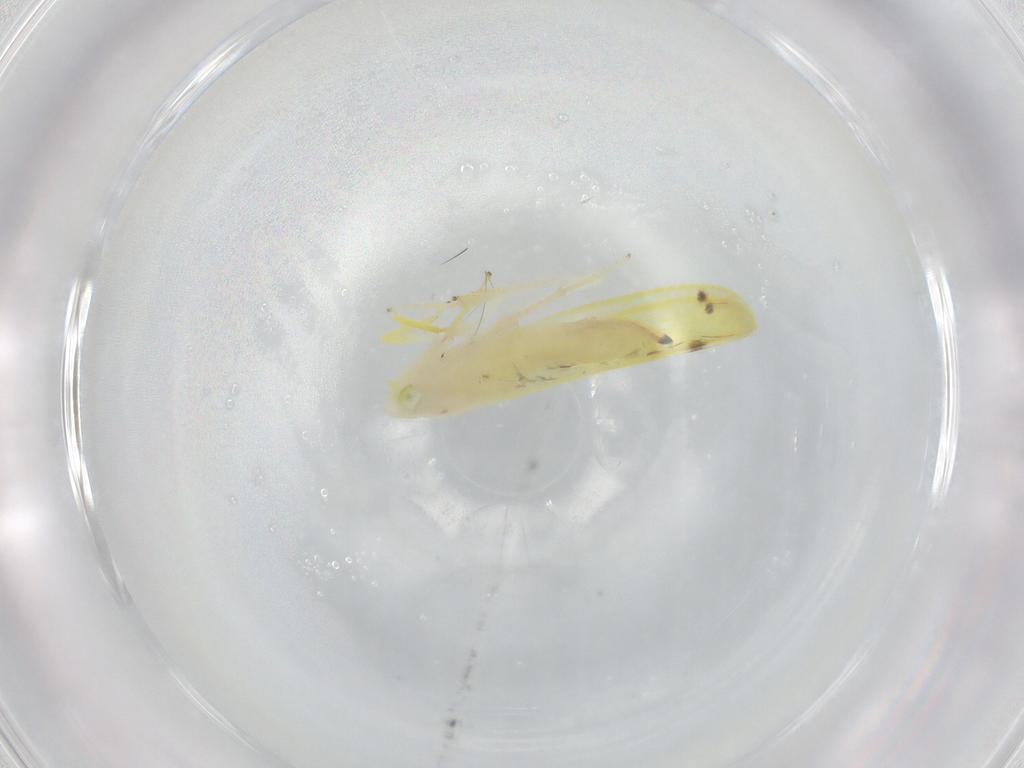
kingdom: Animalia
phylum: Arthropoda
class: Insecta
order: Hemiptera
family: Cicadellidae
